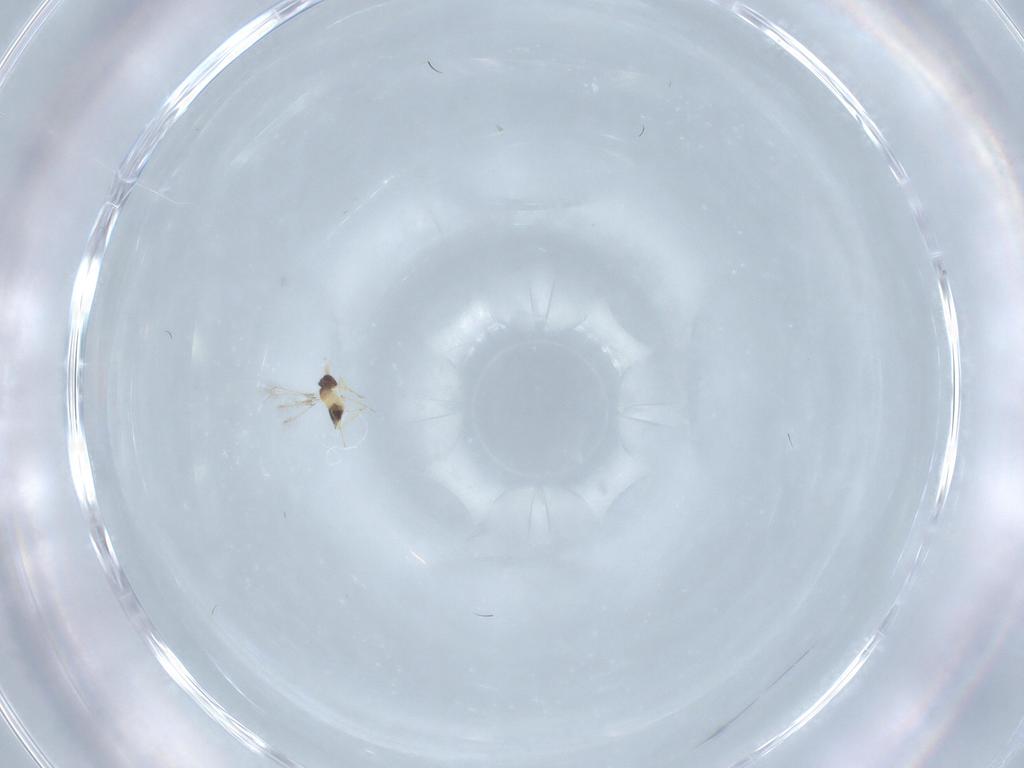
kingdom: Animalia
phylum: Arthropoda
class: Insecta
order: Hymenoptera
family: Mymaridae
